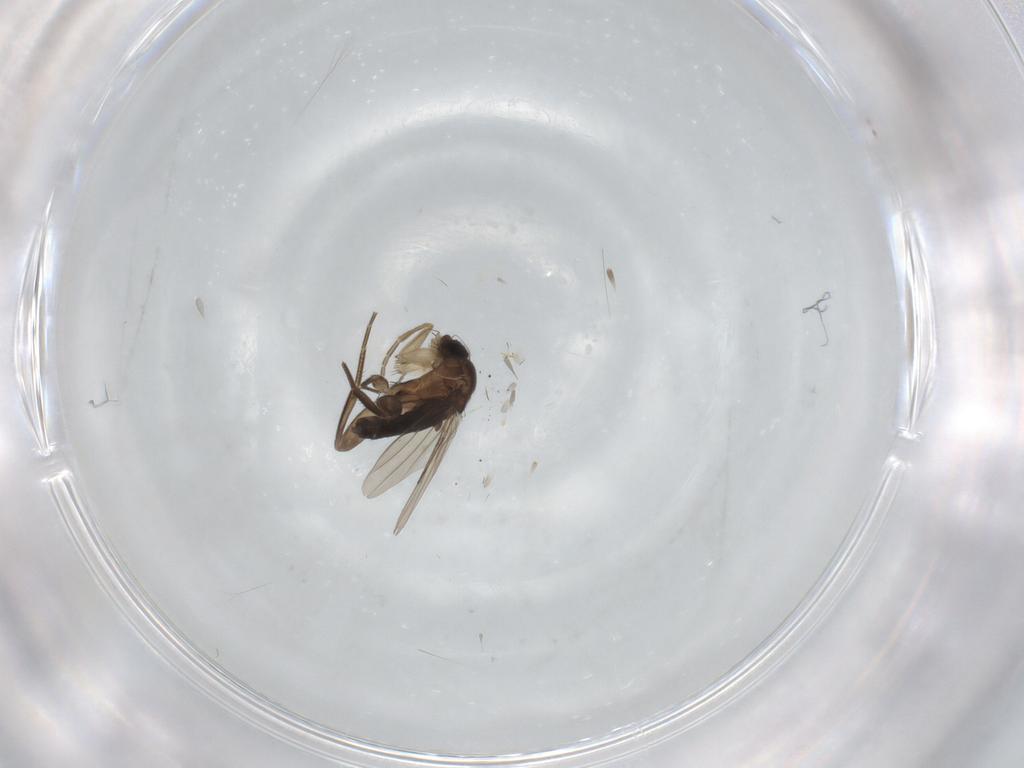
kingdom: Animalia
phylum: Arthropoda
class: Insecta
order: Diptera
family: Phoridae
